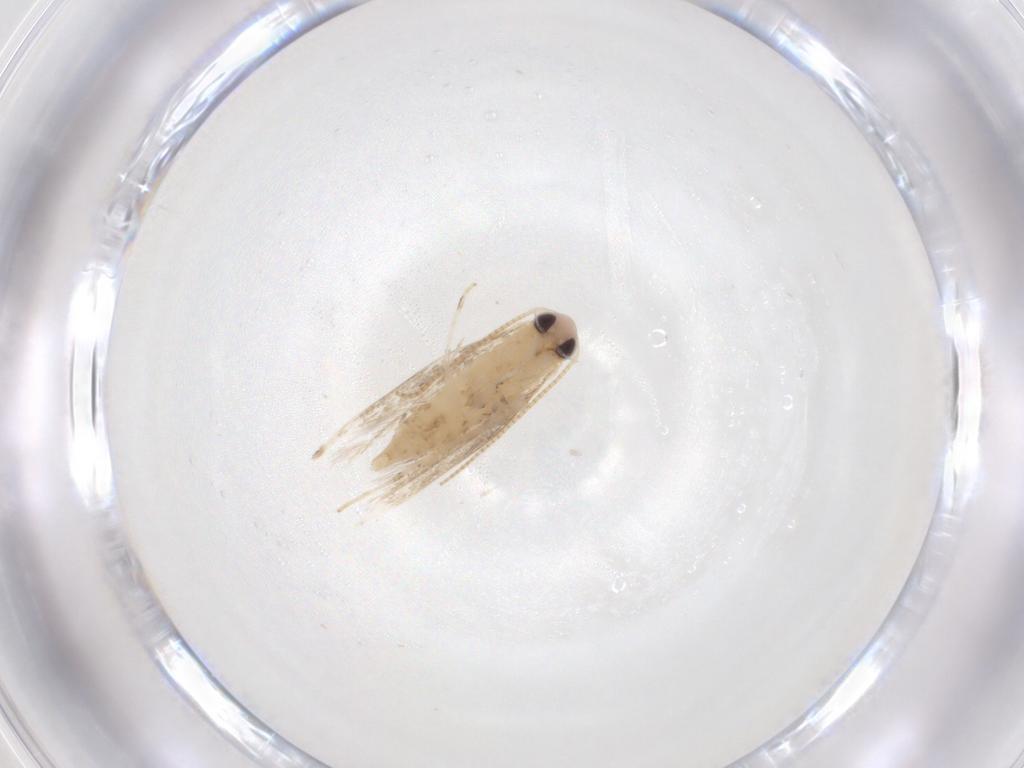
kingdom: Animalia
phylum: Arthropoda
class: Insecta
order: Lepidoptera
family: Gracillariidae
